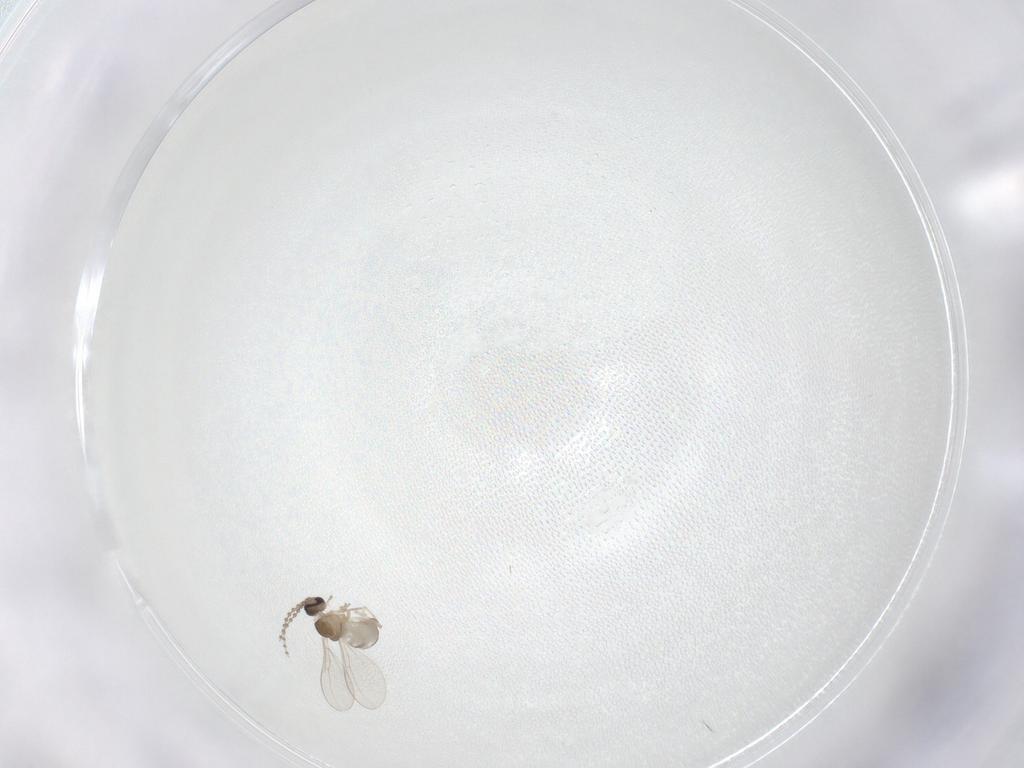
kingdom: Animalia
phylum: Arthropoda
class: Insecta
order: Diptera
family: Cecidomyiidae
